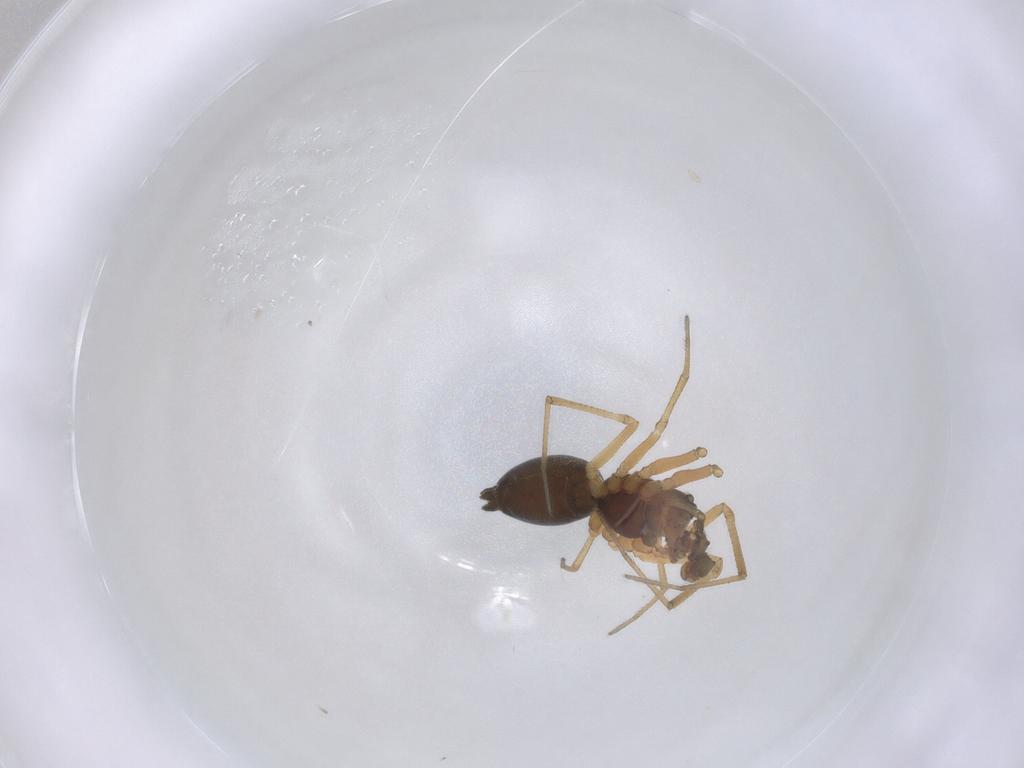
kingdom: Animalia
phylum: Arthropoda
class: Arachnida
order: Araneae
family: Linyphiidae
